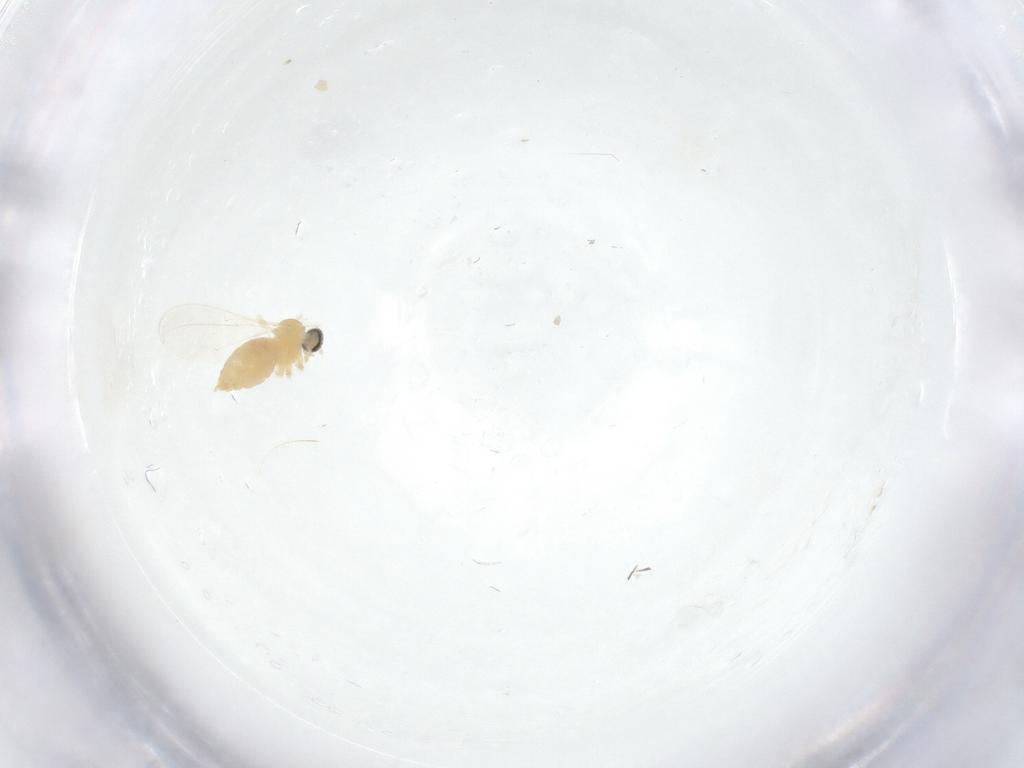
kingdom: Animalia
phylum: Arthropoda
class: Insecta
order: Diptera
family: Cecidomyiidae
